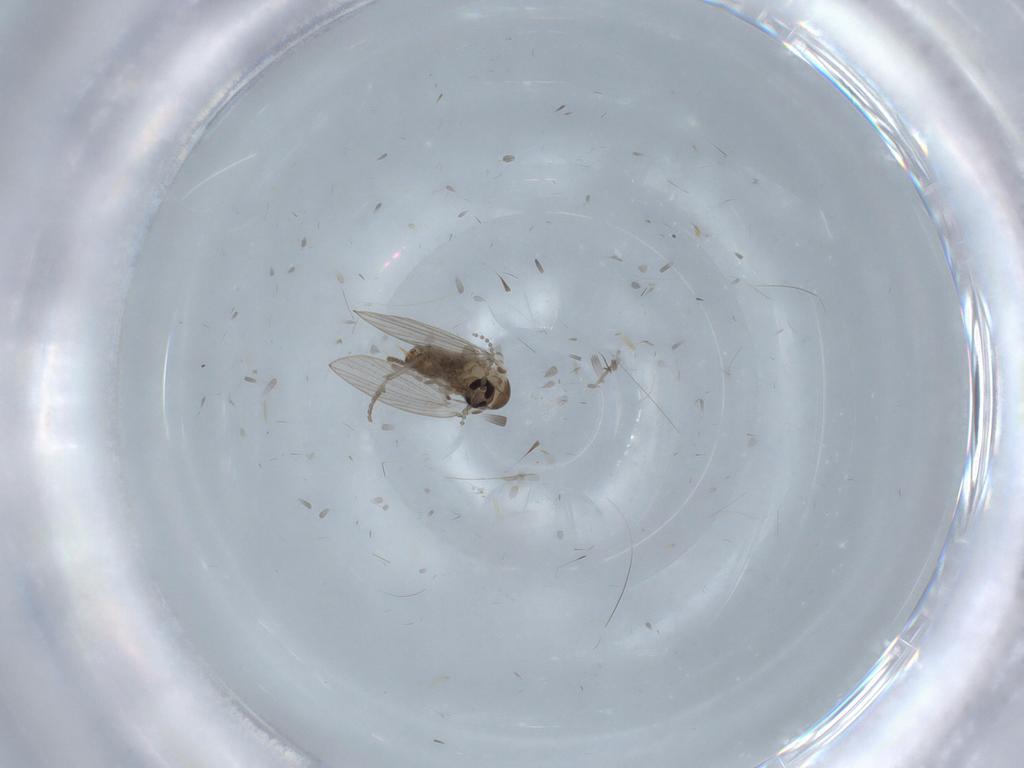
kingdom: Animalia
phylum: Arthropoda
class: Insecta
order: Diptera
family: Psychodidae
